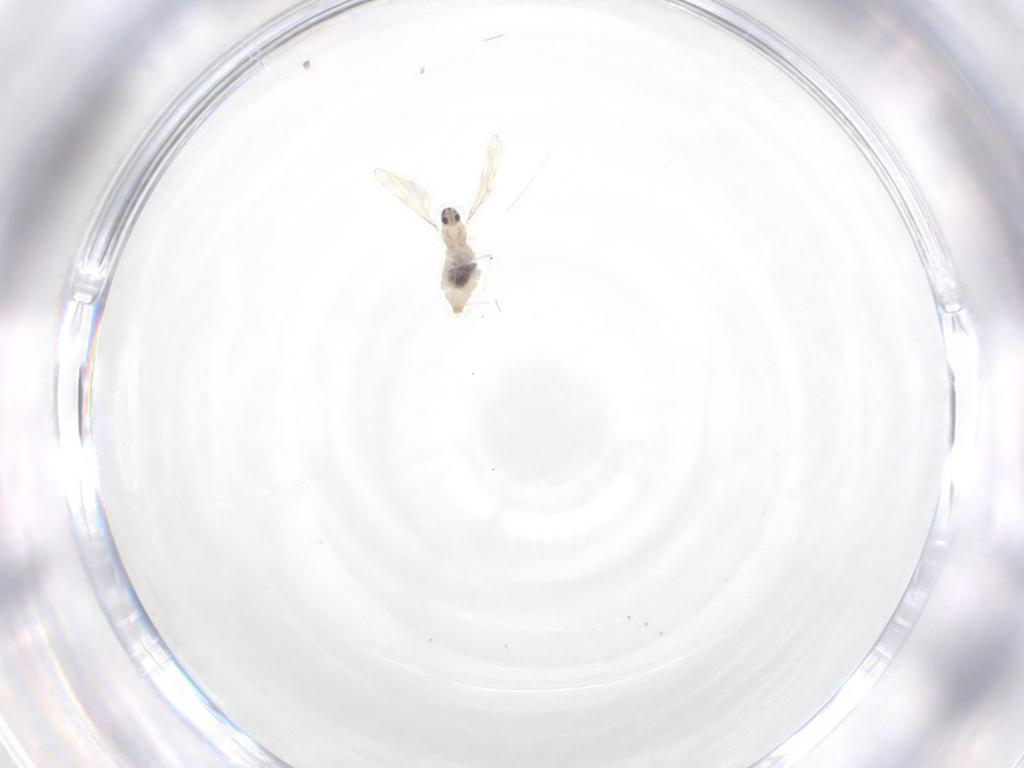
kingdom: Animalia
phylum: Arthropoda
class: Insecta
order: Diptera
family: Cecidomyiidae
